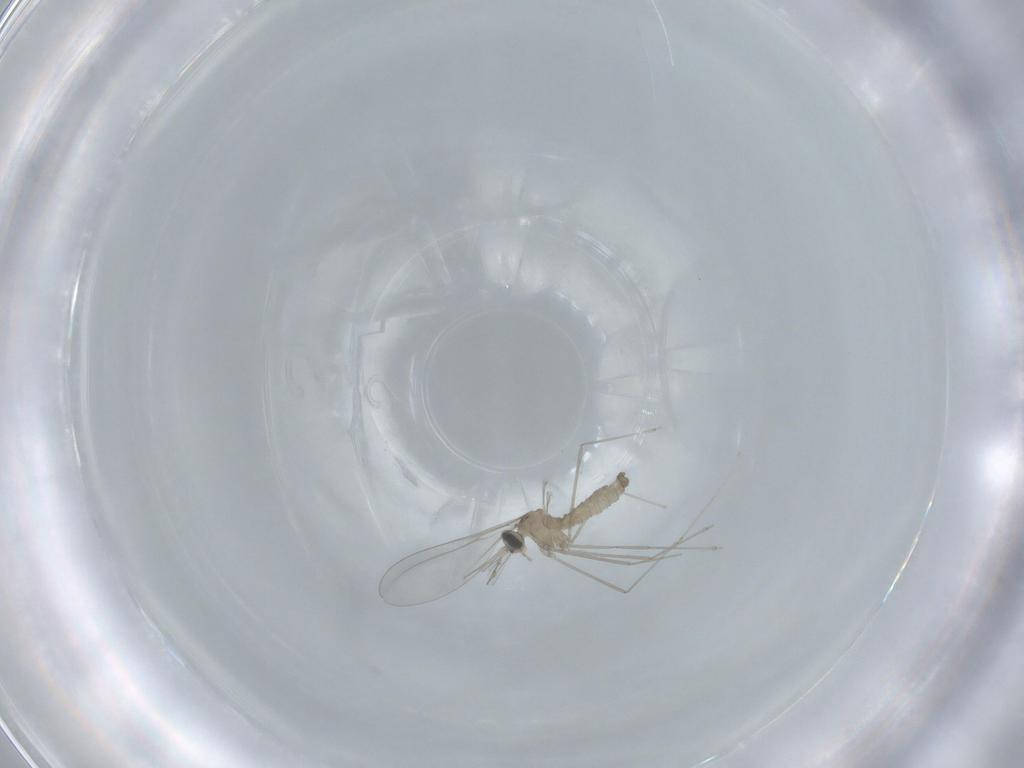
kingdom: Animalia
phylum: Arthropoda
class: Insecta
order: Diptera
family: Cecidomyiidae
